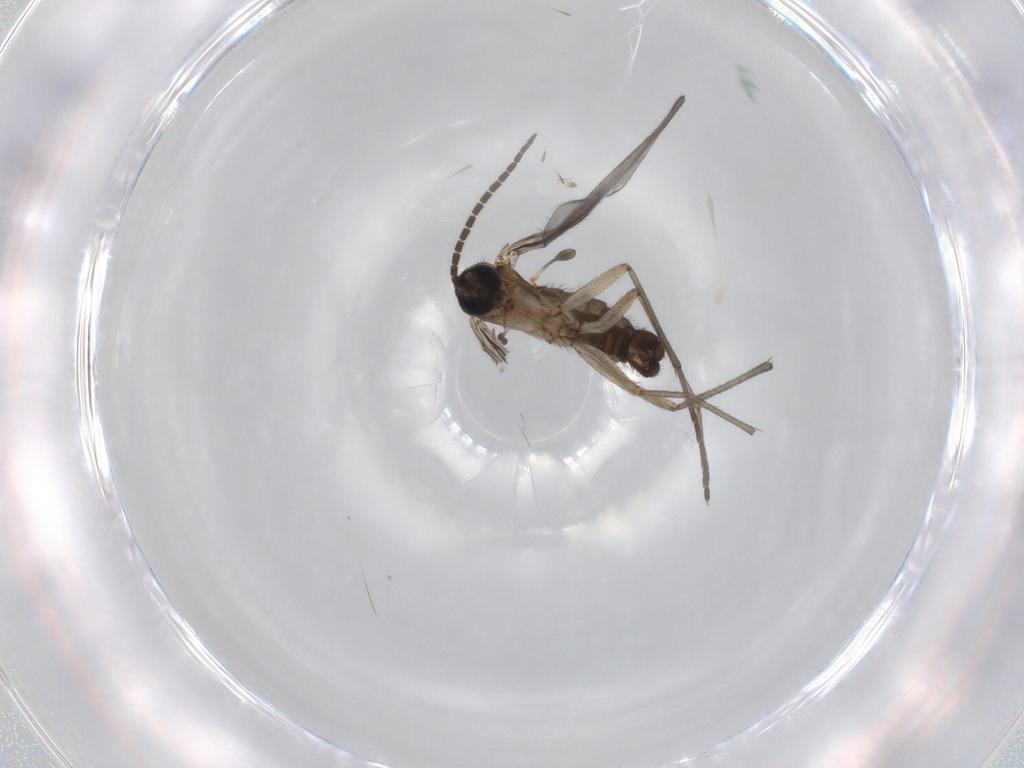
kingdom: Animalia
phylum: Arthropoda
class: Insecta
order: Diptera
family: Sciaridae
